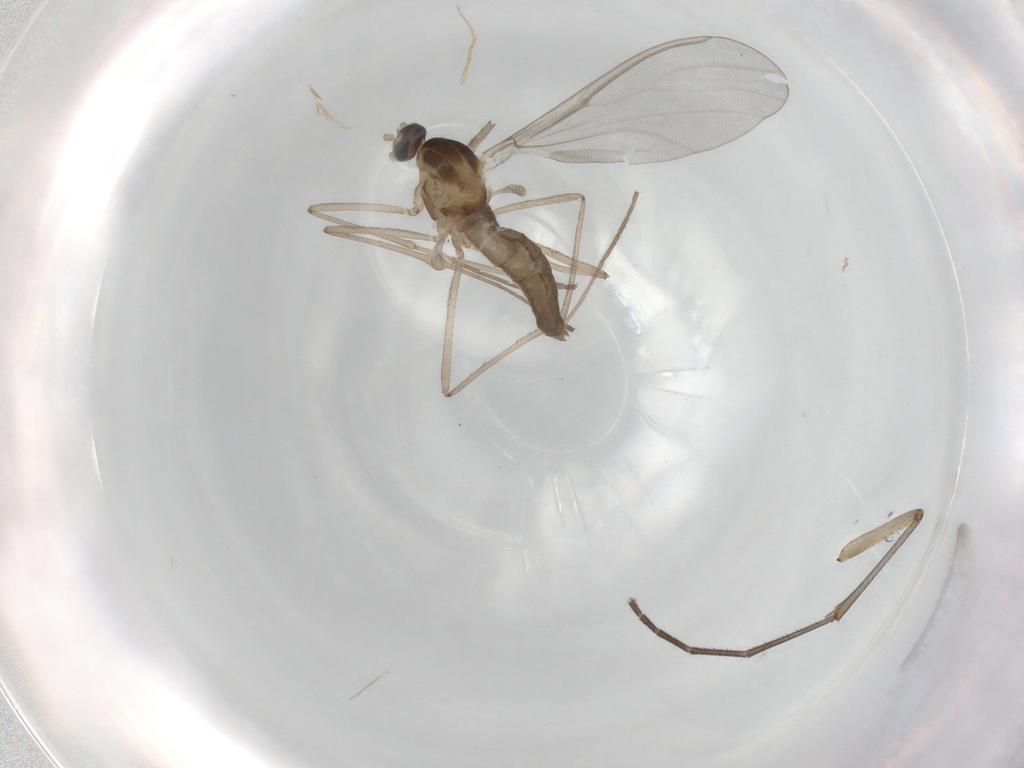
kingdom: Animalia
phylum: Arthropoda
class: Insecta
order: Diptera
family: Cecidomyiidae
